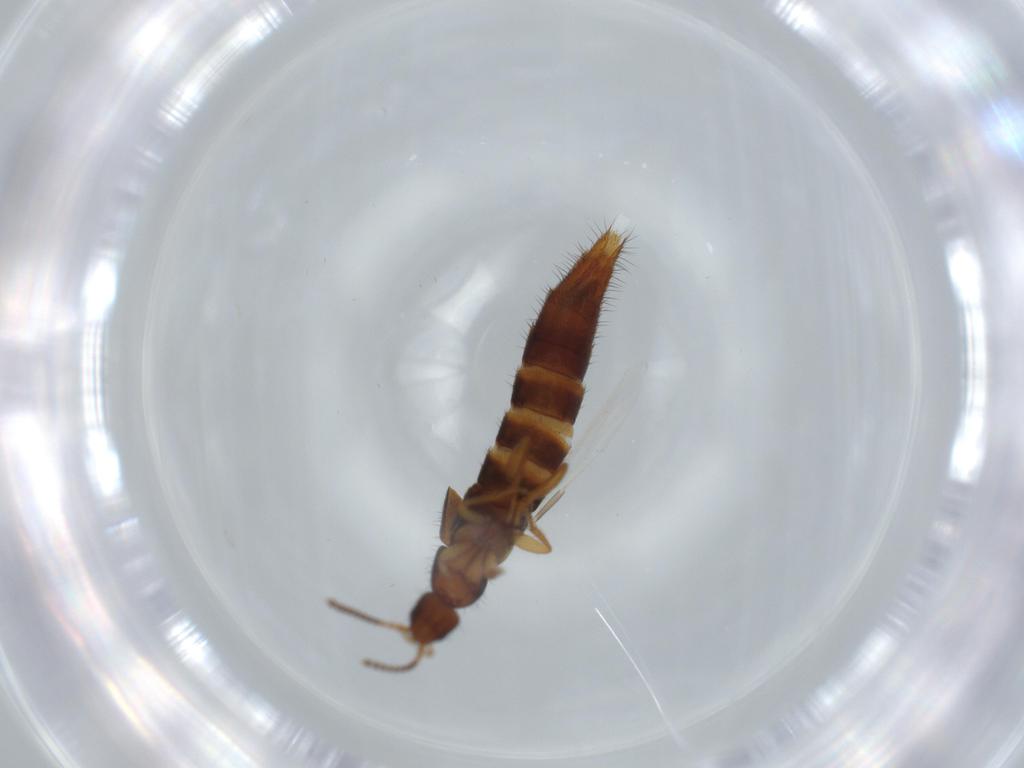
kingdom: Animalia
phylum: Arthropoda
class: Insecta
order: Coleoptera
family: Staphylinidae
